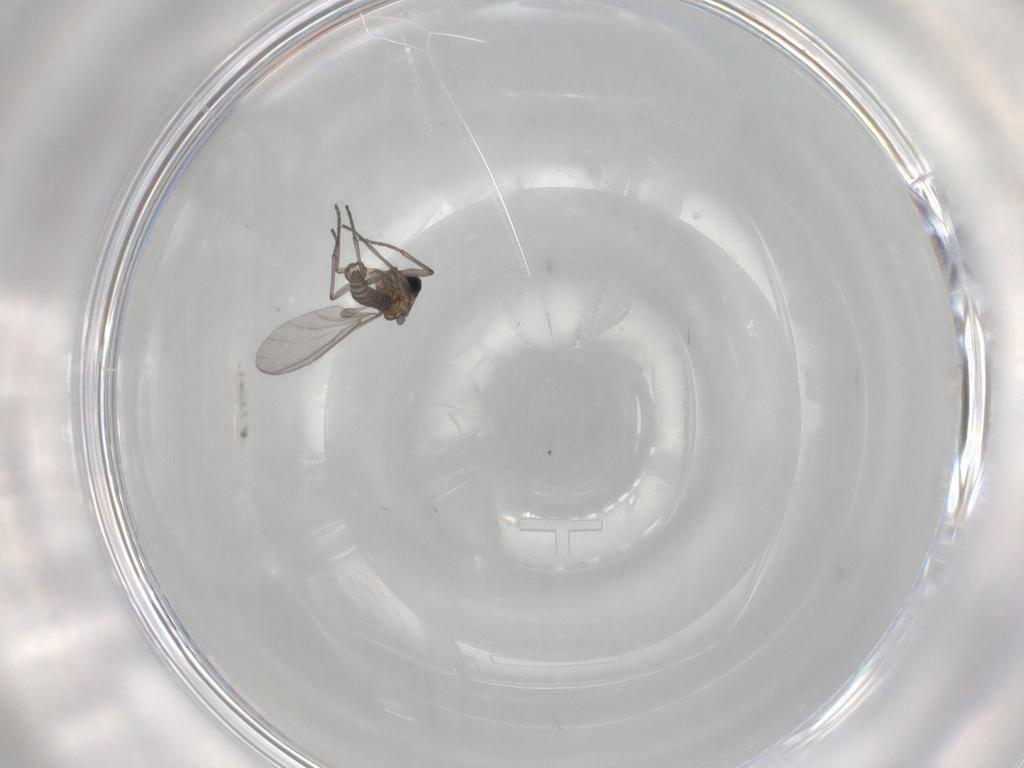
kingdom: Animalia
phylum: Arthropoda
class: Insecta
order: Diptera
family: Sciaridae
